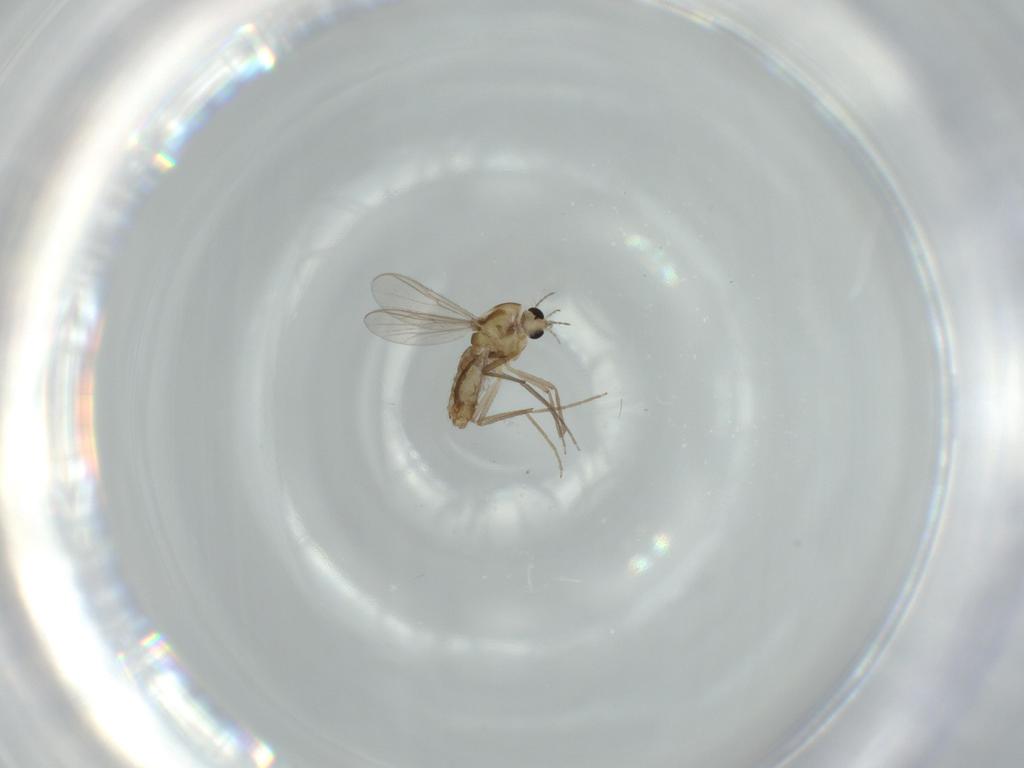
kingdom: Animalia
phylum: Arthropoda
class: Insecta
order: Diptera
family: Chironomidae
